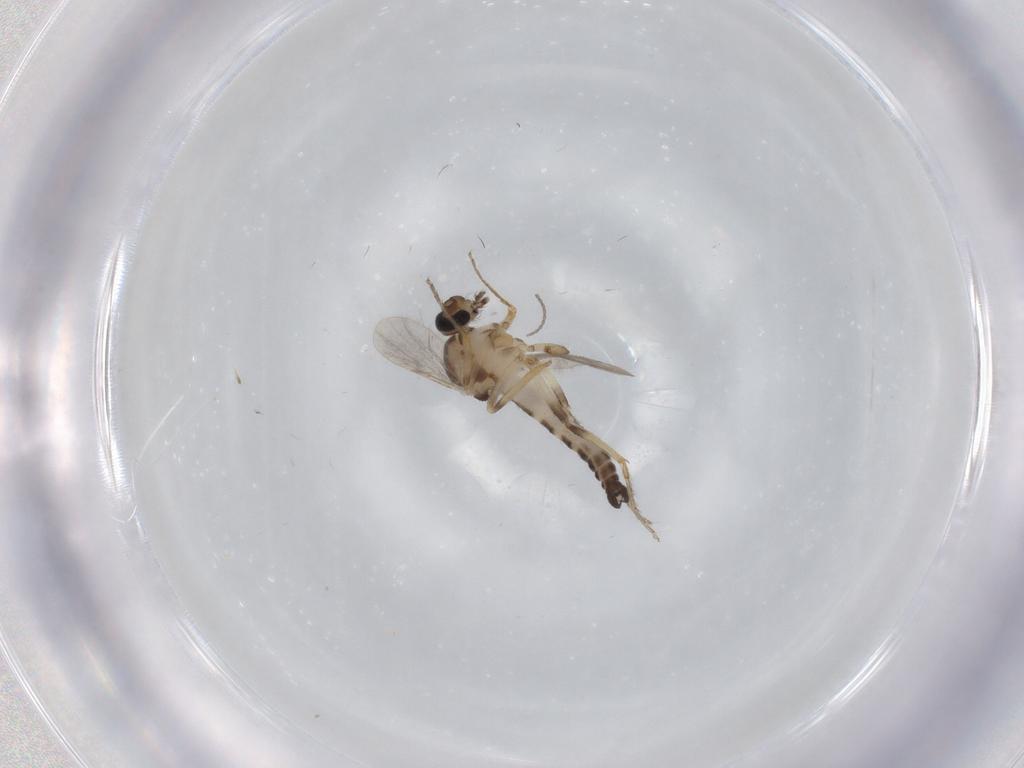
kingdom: Animalia
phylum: Arthropoda
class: Insecta
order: Diptera
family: Ceratopogonidae
